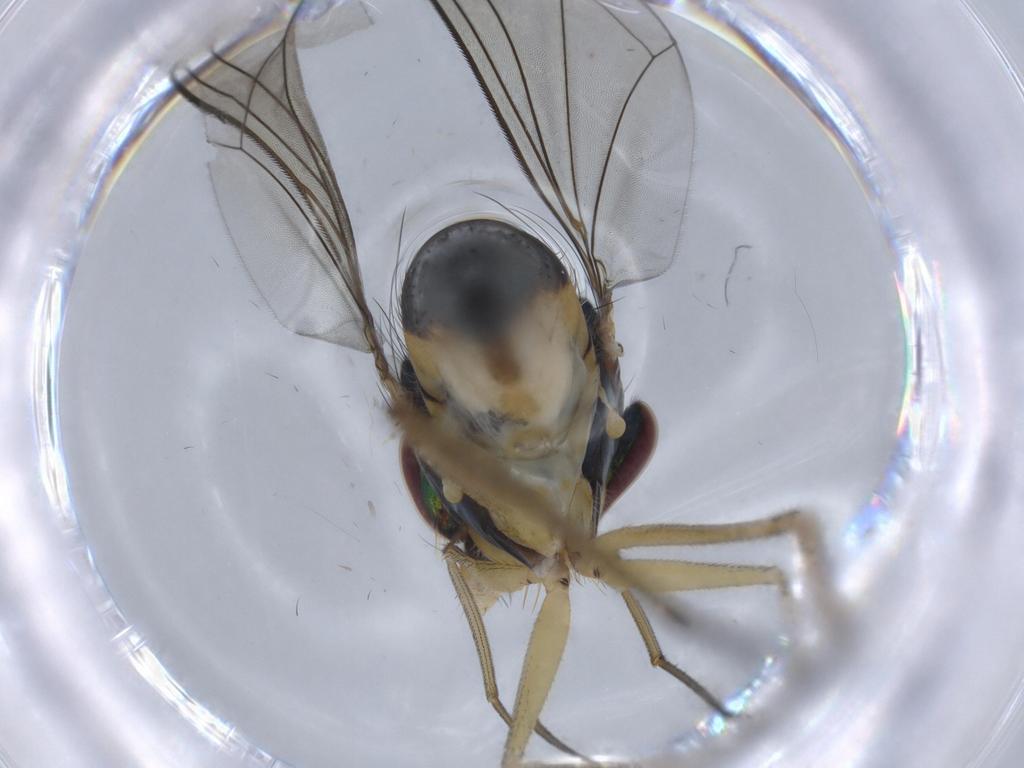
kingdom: Animalia
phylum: Arthropoda
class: Insecta
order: Diptera
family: Dolichopodidae
